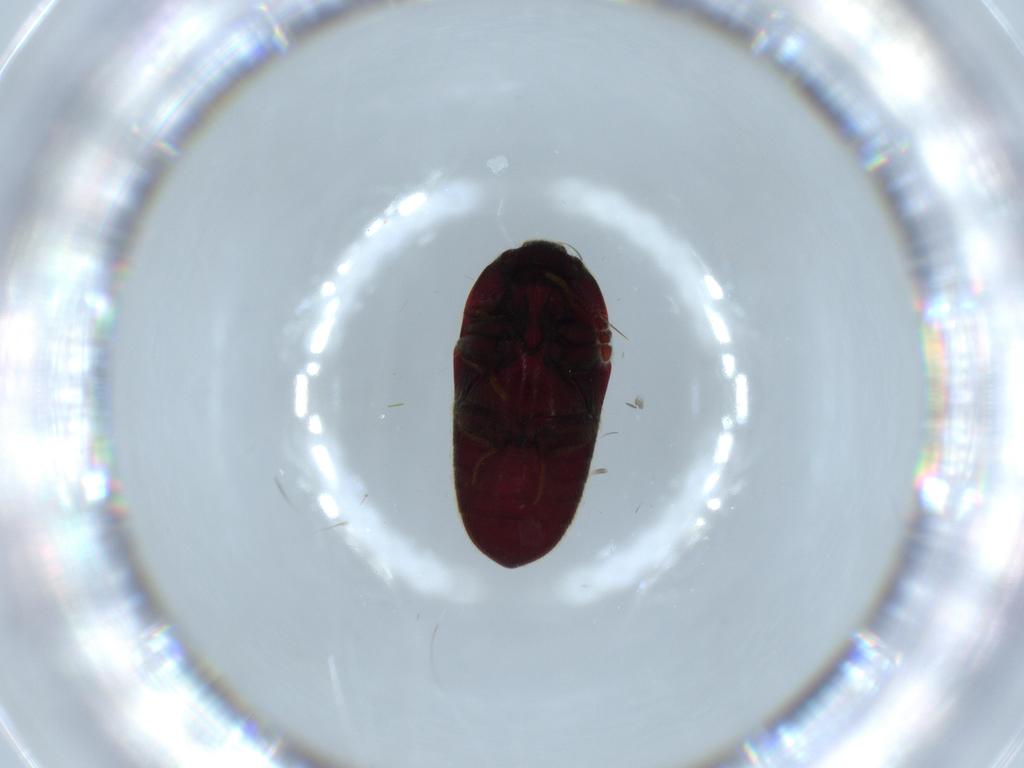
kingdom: Animalia
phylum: Arthropoda
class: Insecta
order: Coleoptera
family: Throscidae
